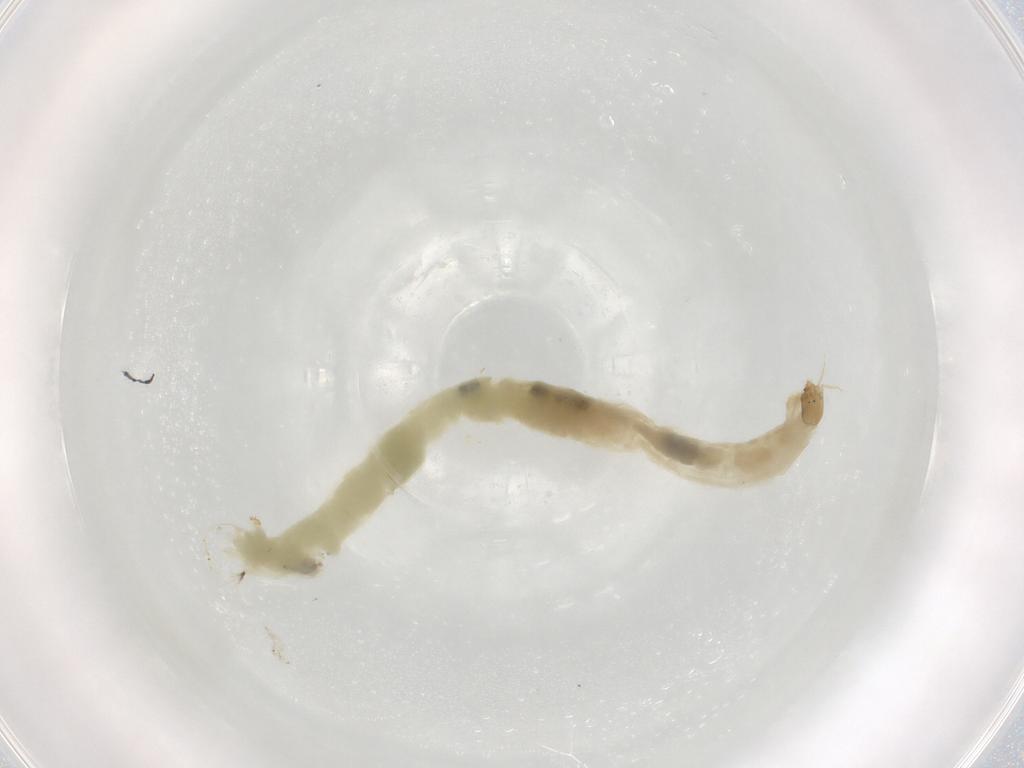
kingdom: Animalia
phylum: Arthropoda
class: Insecta
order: Diptera
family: Chironomidae
